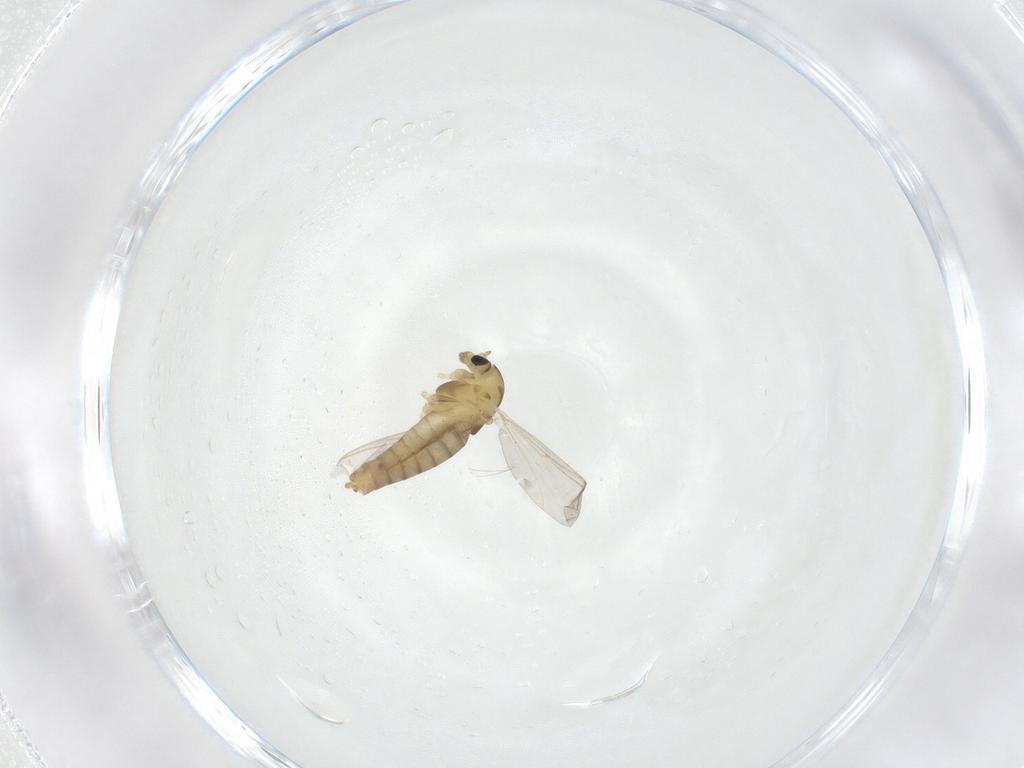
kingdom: Animalia
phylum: Arthropoda
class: Insecta
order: Diptera
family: Chironomidae
